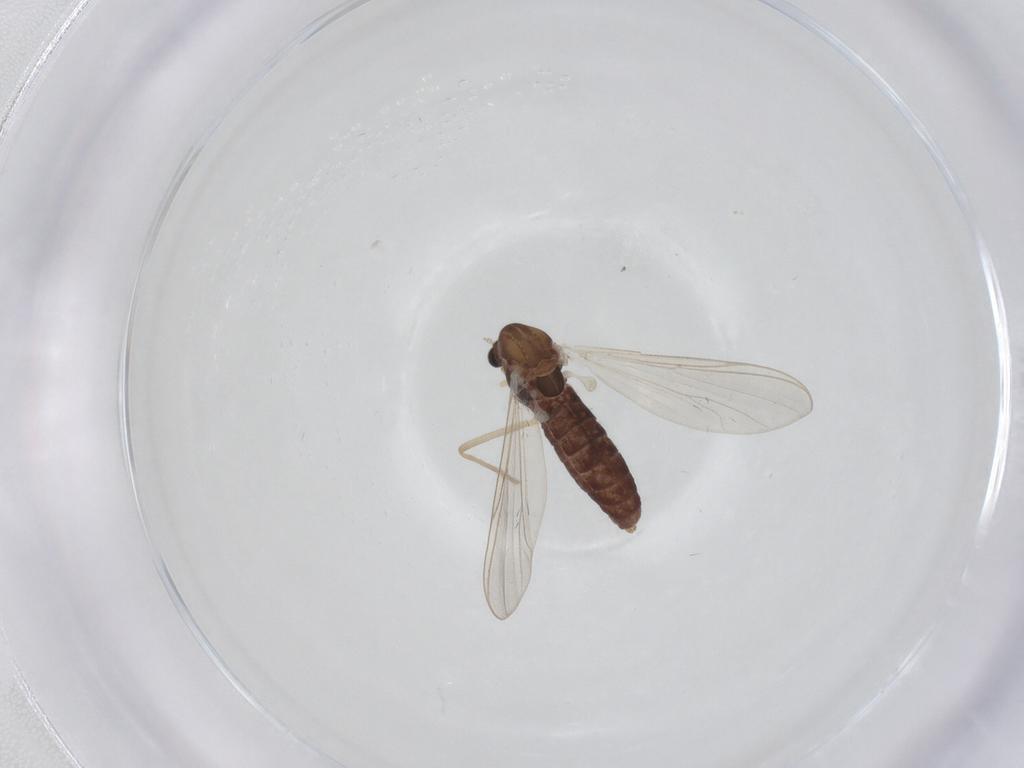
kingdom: Animalia
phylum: Arthropoda
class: Insecta
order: Diptera
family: Chironomidae
